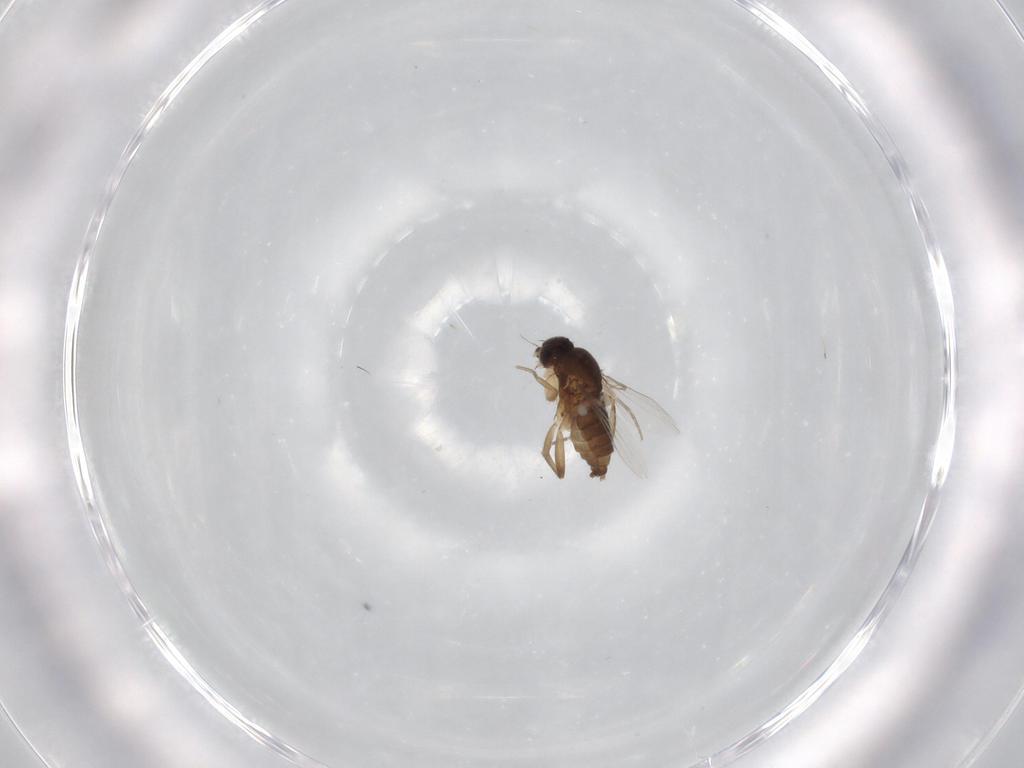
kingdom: Animalia
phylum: Arthropoda
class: Insecta
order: Diptera
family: Phoridae
